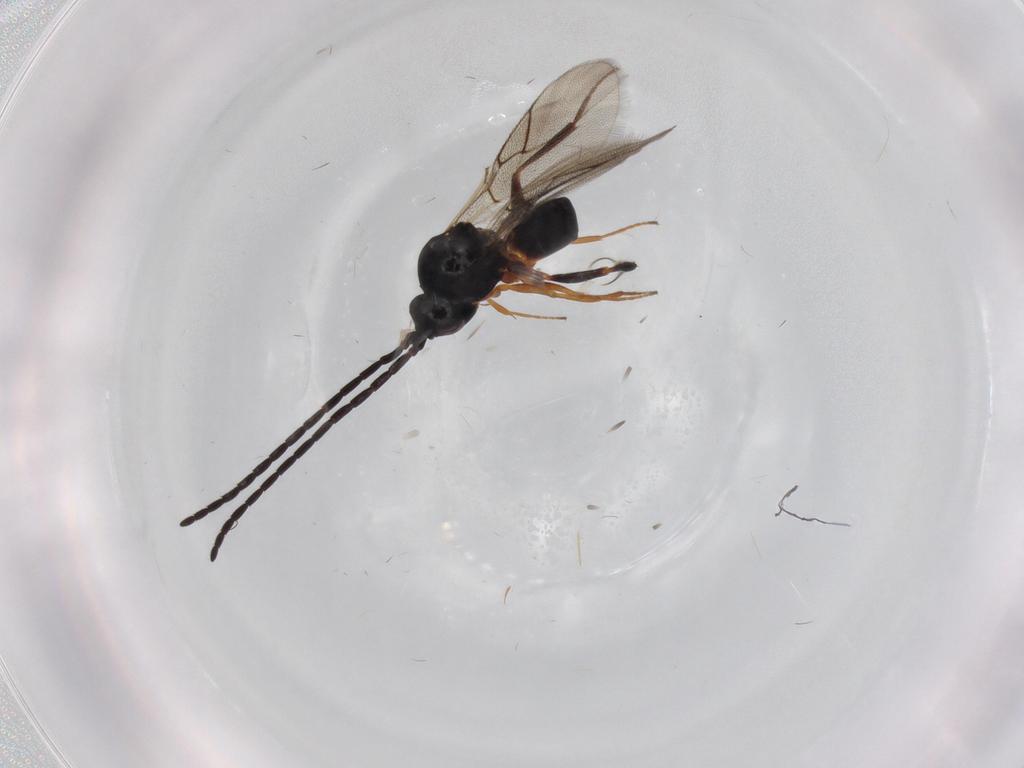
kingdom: Animalia
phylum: Arthropoda
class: Insecta
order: Hymenoptera
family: Figitidae
